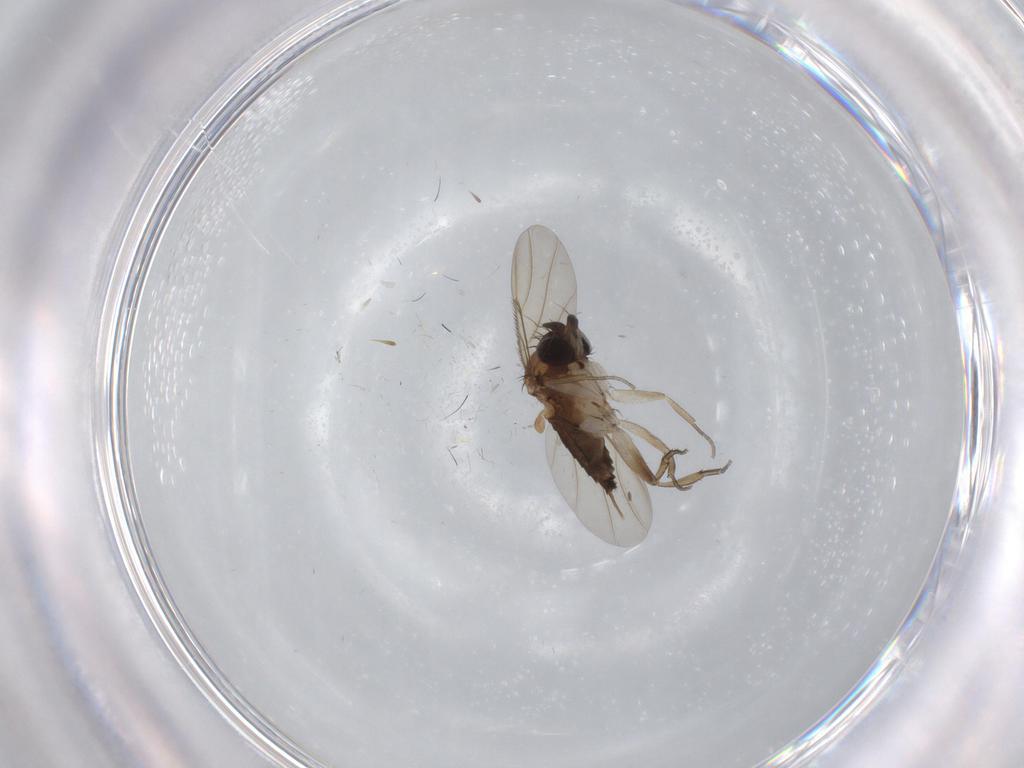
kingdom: Animalia
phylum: Arthropoda
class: Insecta
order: Diptera
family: Phoridae
